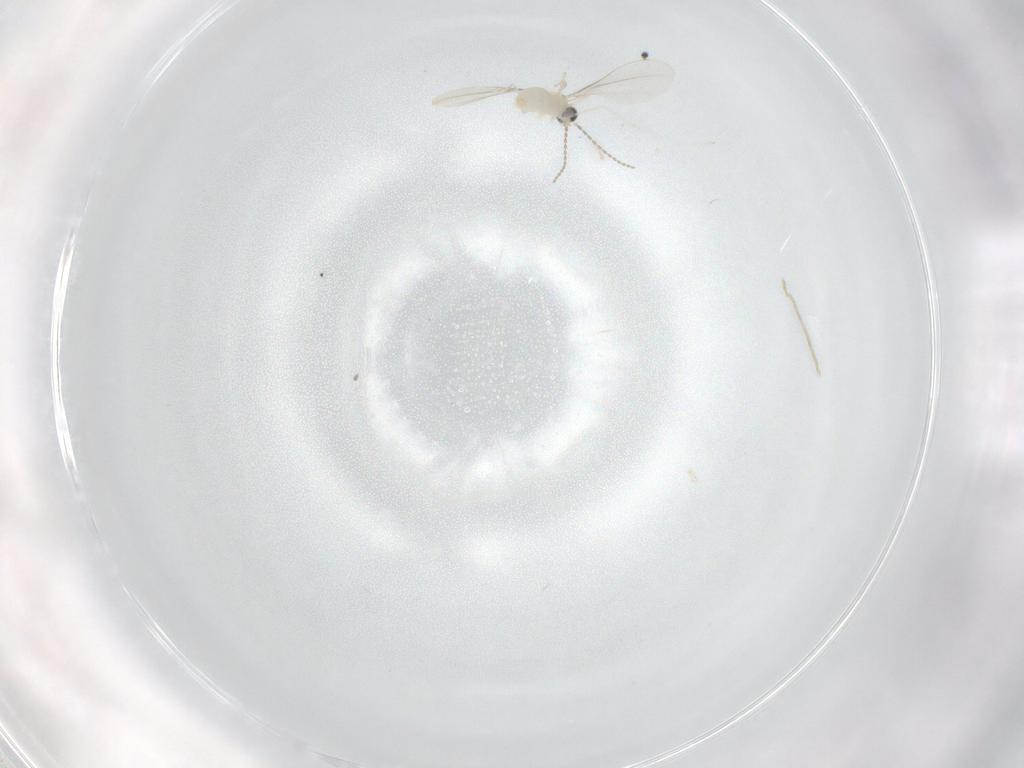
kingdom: Animalia
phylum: Arthropoda
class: Insecta
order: Diptera
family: Cecidomyiidae
